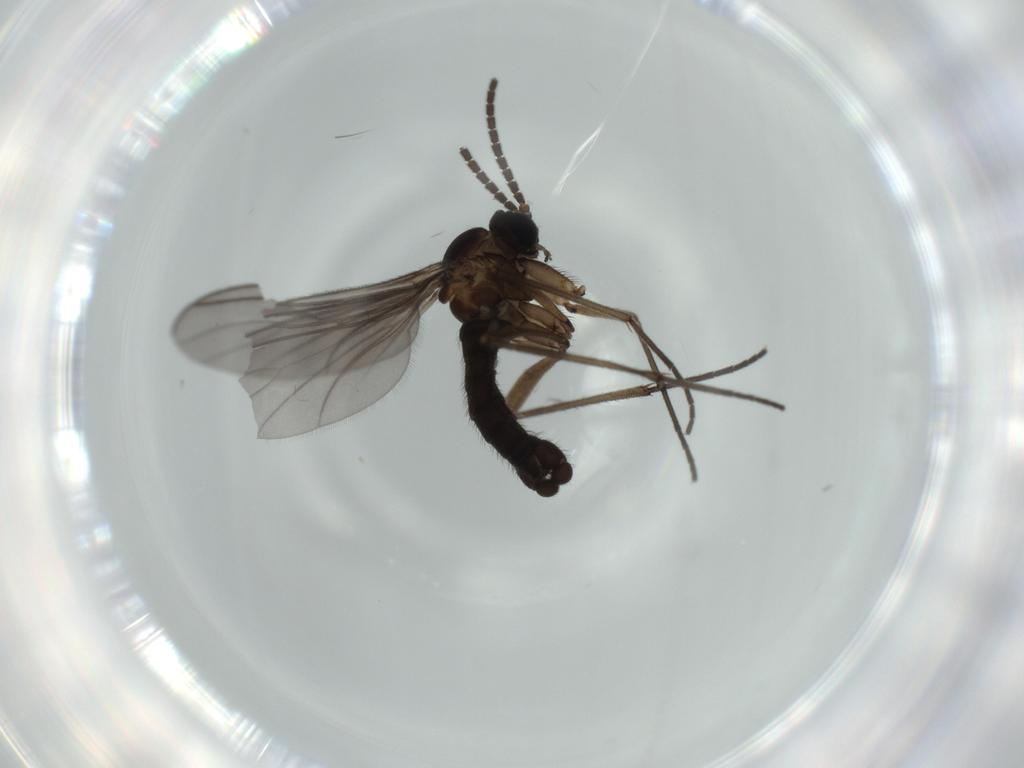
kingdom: Animalia
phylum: Arthropoda
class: Insecta
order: Diptera
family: Sciaridae
